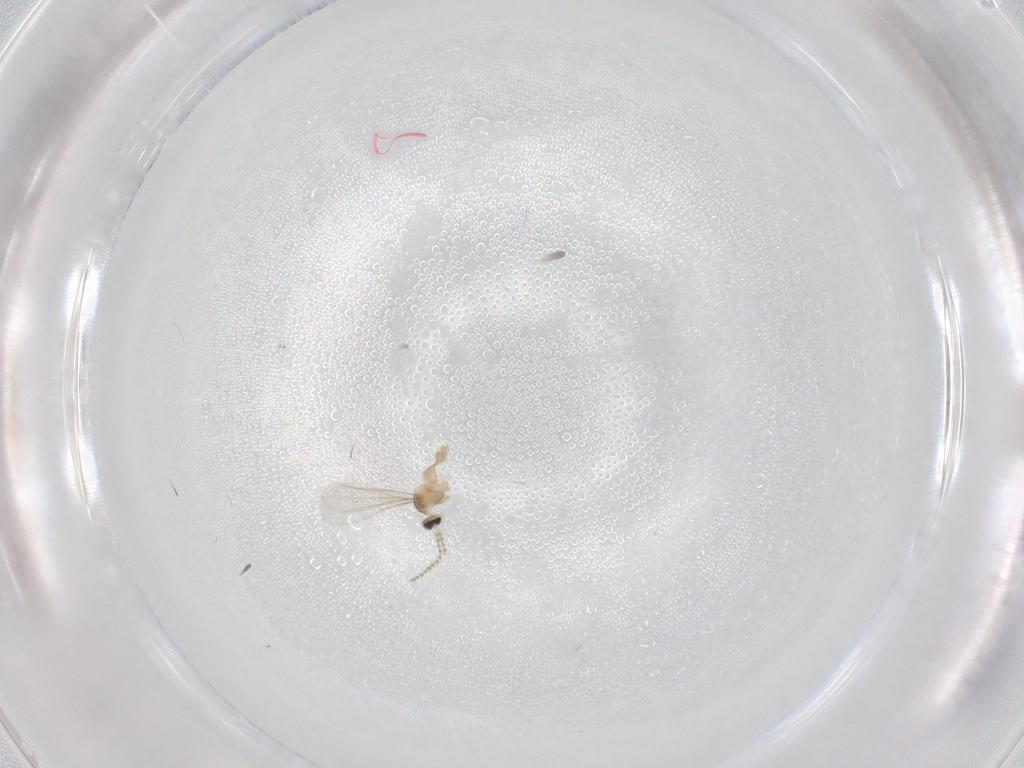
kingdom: Animalia
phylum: Arthropoda
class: Insecta
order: Diptera
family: Cecidomyiidae
